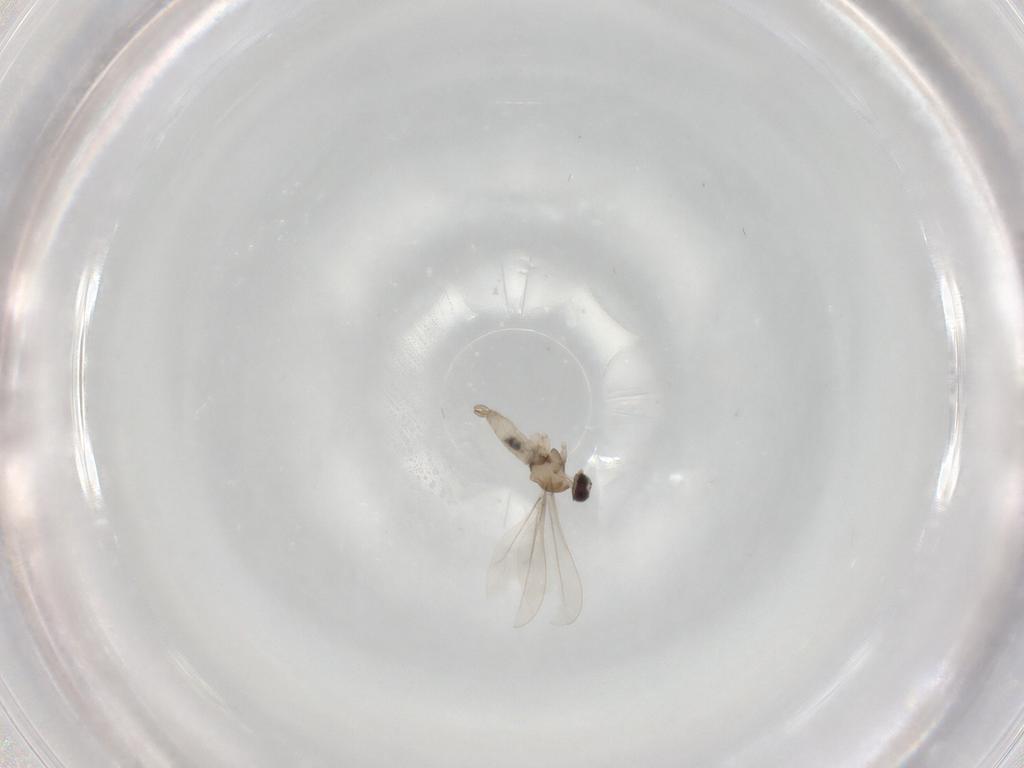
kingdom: Animalia
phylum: Arthropoda
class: Insecta
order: Diptera
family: Cecidomyiidae
